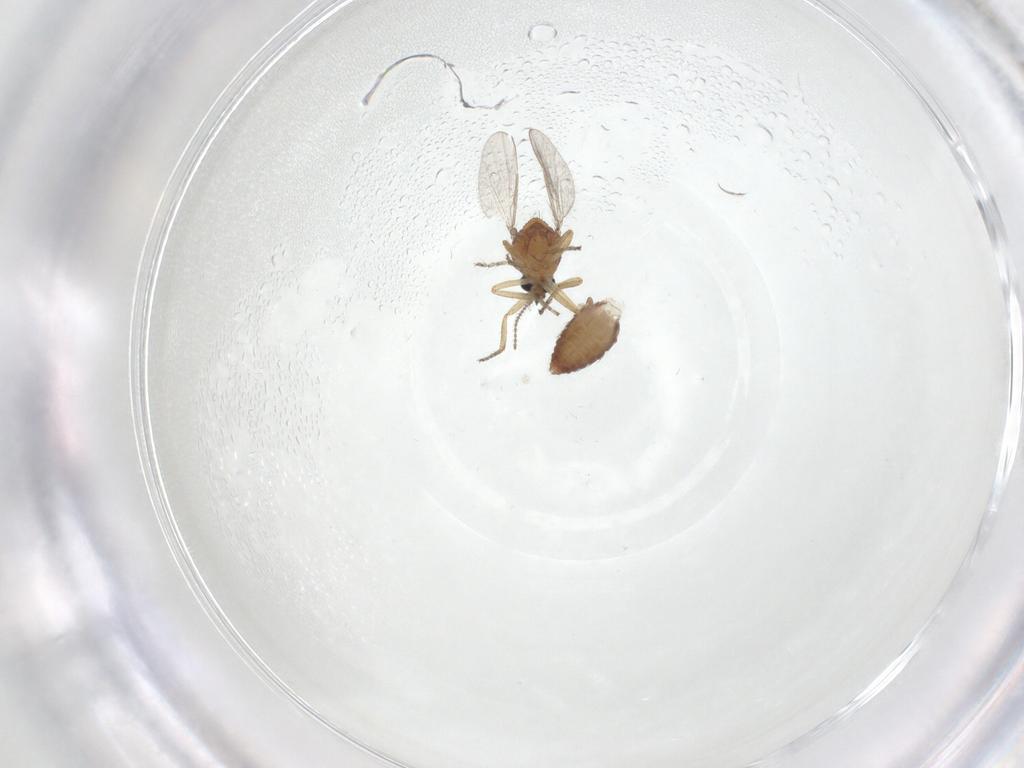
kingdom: Animalia
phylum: Arthropoda
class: Insecta
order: Diptera
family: Ceratopogonidae
